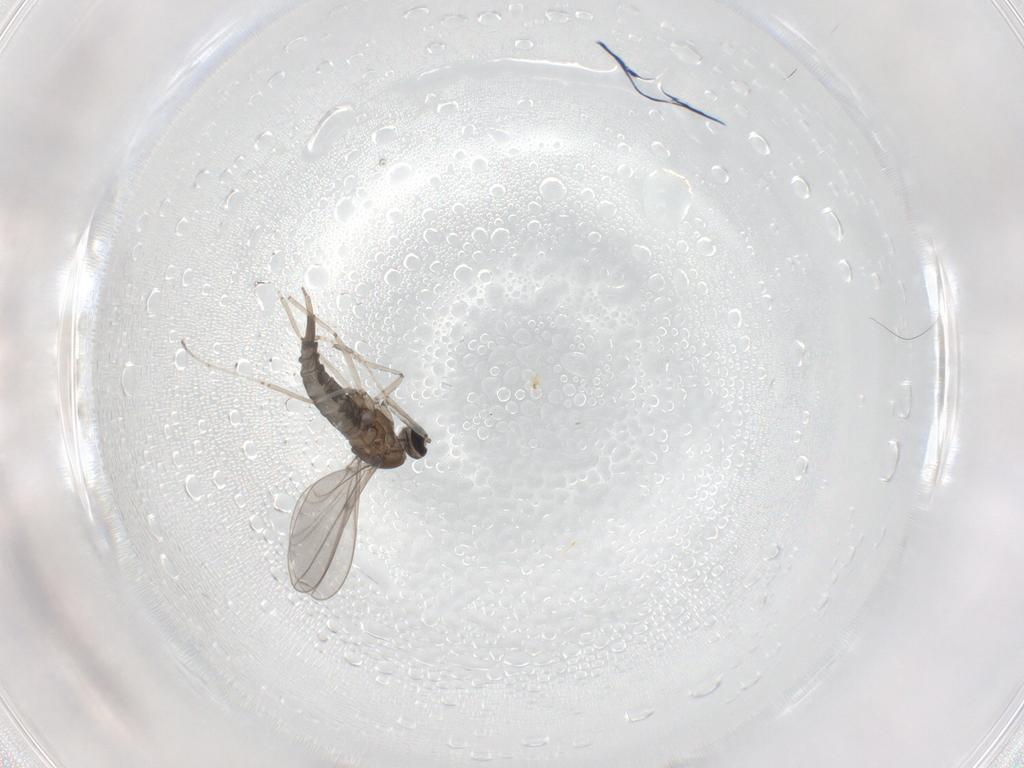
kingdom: Animalia
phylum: Arthropoda
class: Insecta
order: Diptera
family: Cecidomyiidae
